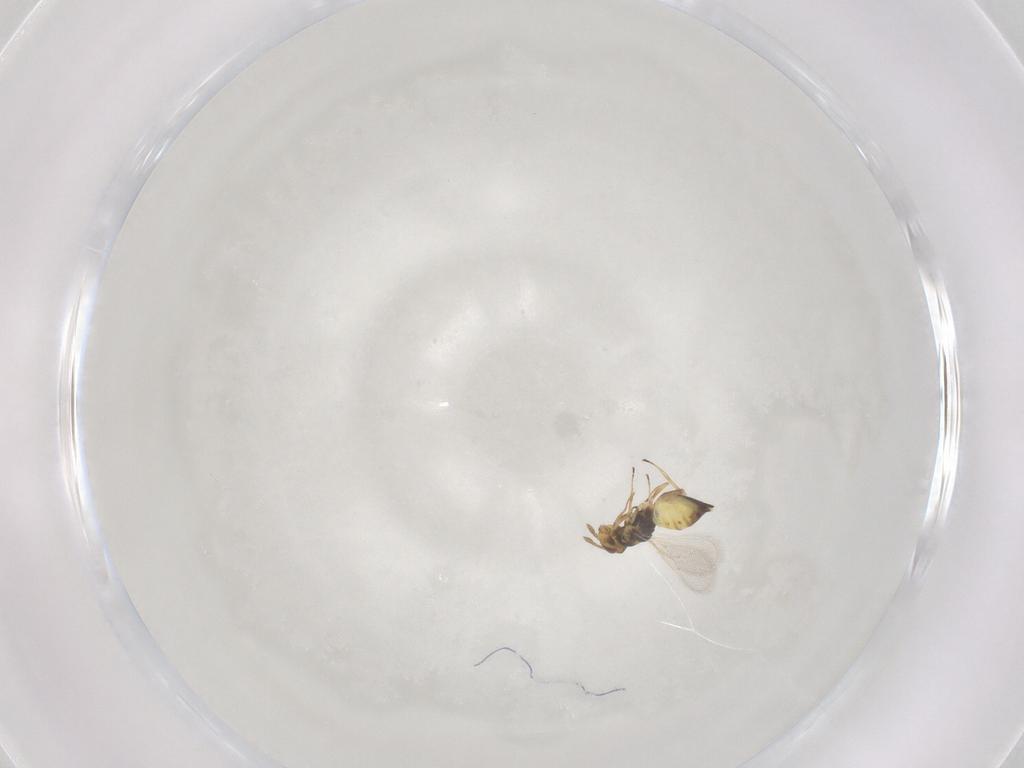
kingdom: Animalia
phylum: Arthropoda
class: Insecta
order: Hymenoptera
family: Eulophidae
